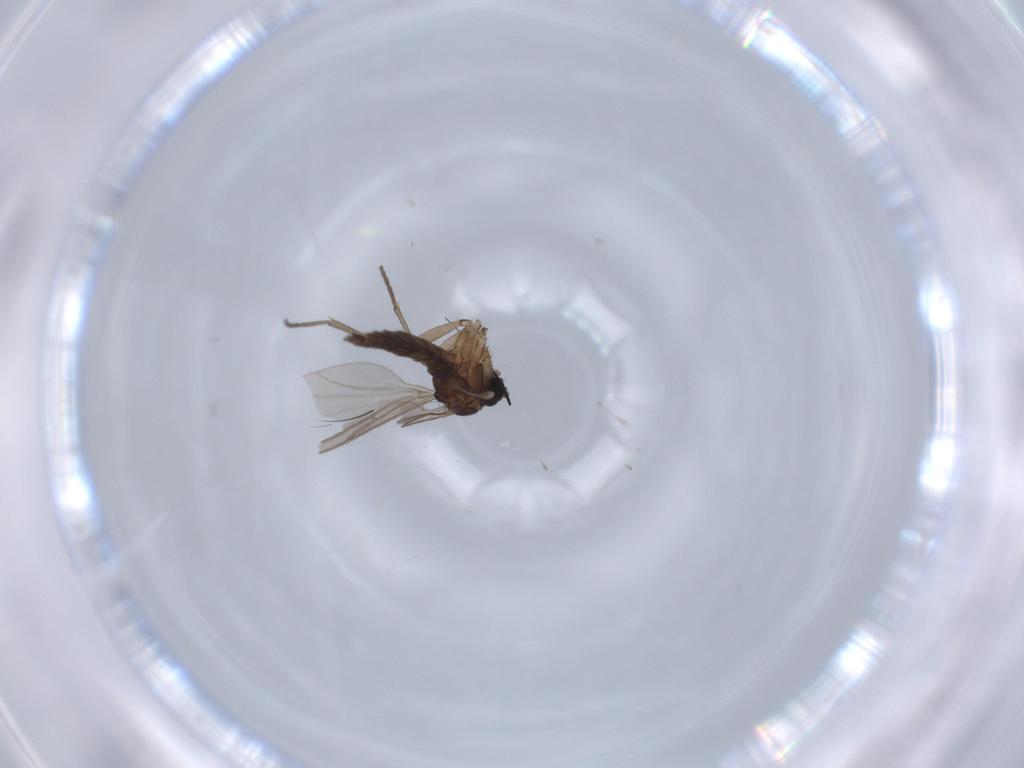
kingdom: Animalia
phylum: Arthropoda
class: Insecta
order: Diptera
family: Sciaridae
